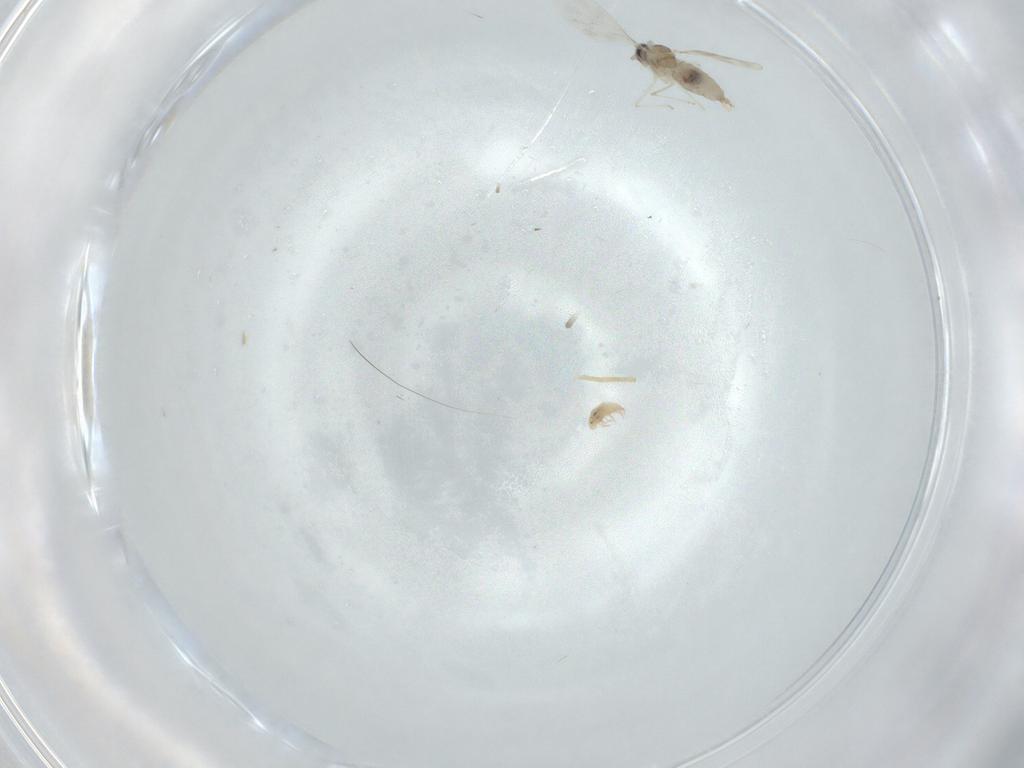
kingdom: Animalia
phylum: Arthropoda
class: Insecta
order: Diptera
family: Cecidomyiidae
